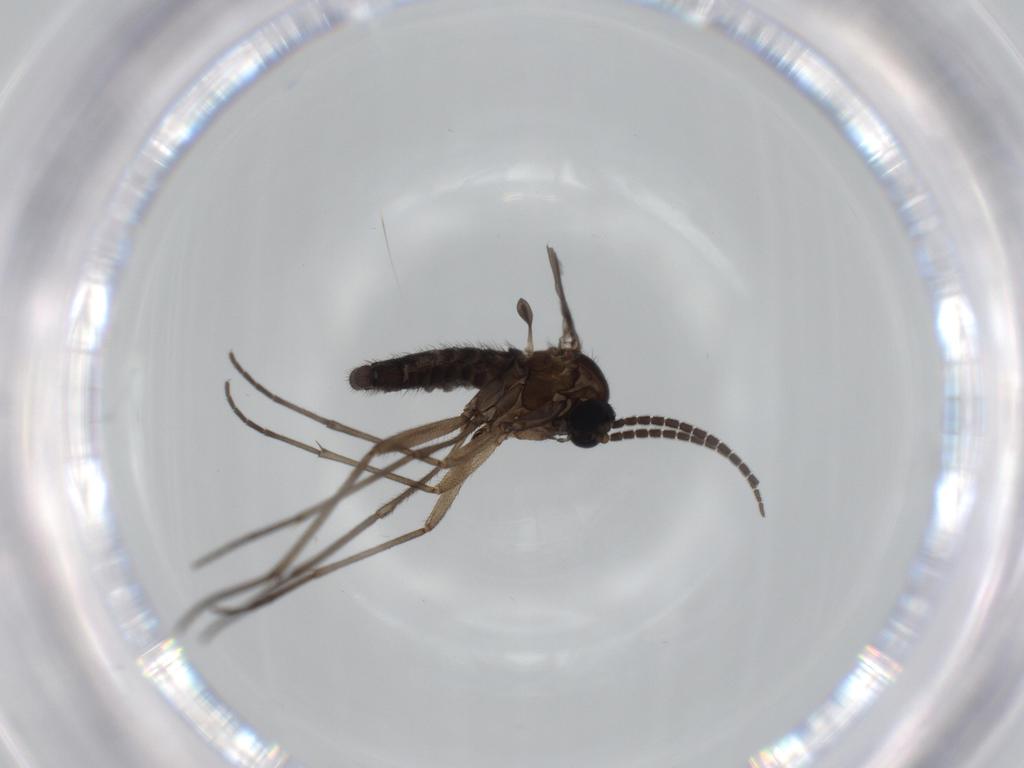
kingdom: Animalia
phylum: Arthropoda
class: Insecta
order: Diptera
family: Sciaridae
